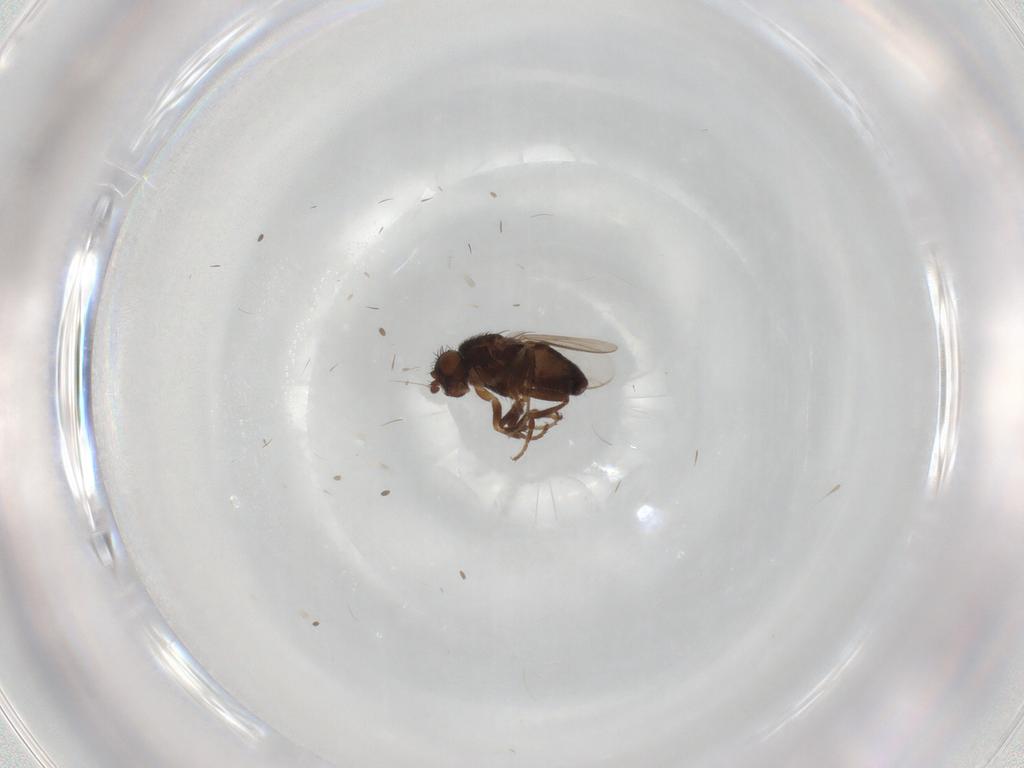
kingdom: Animalia
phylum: Arthropoda
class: Insecta
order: Diptera
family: Sphaeroceridae
